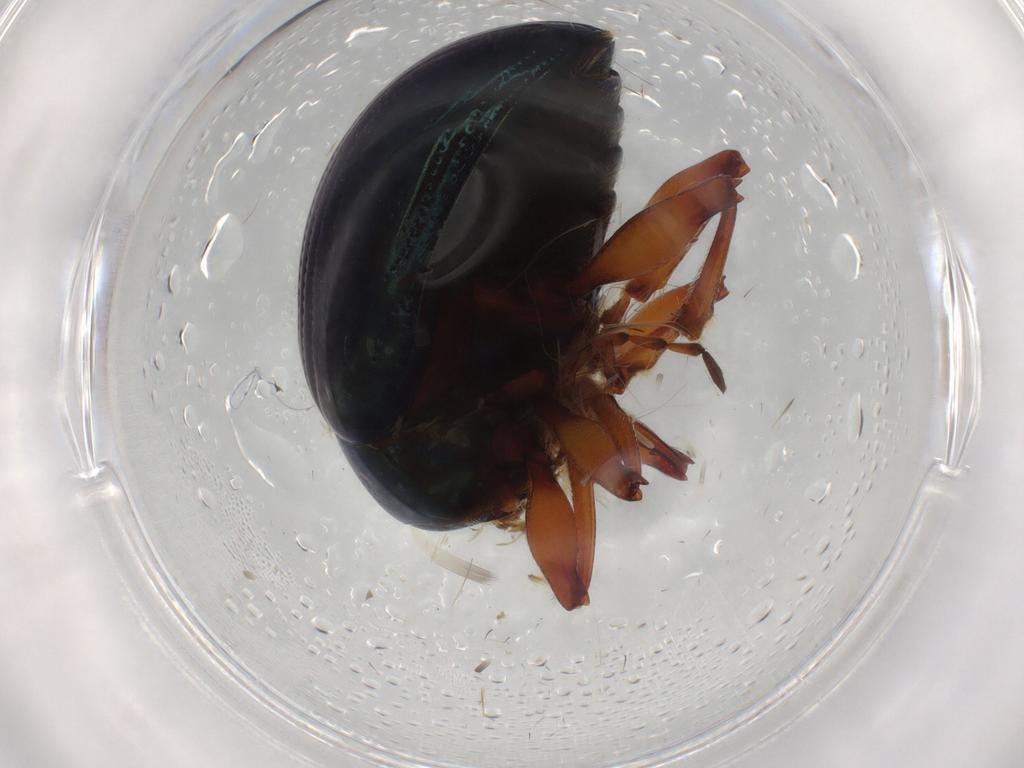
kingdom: Animalia
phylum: Arthropoda
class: Insecta
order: Coleoptera
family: Chrysomelidae
